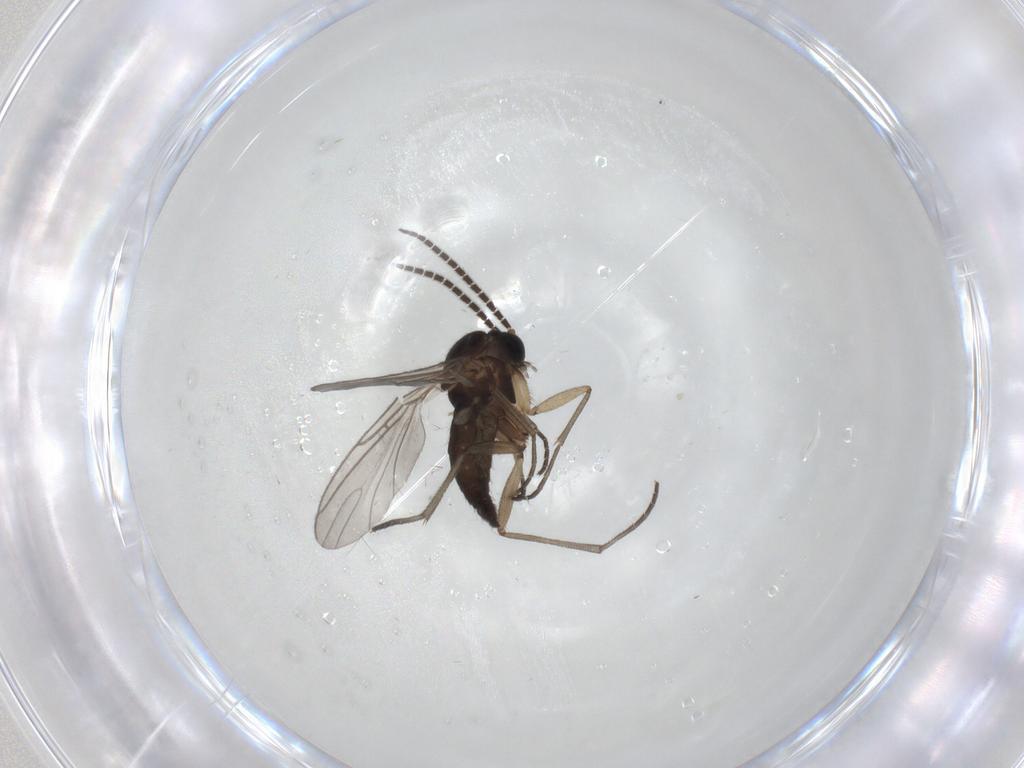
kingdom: Animalia
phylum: Arthropoda
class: Insecta
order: Diptera
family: Sciaridae
